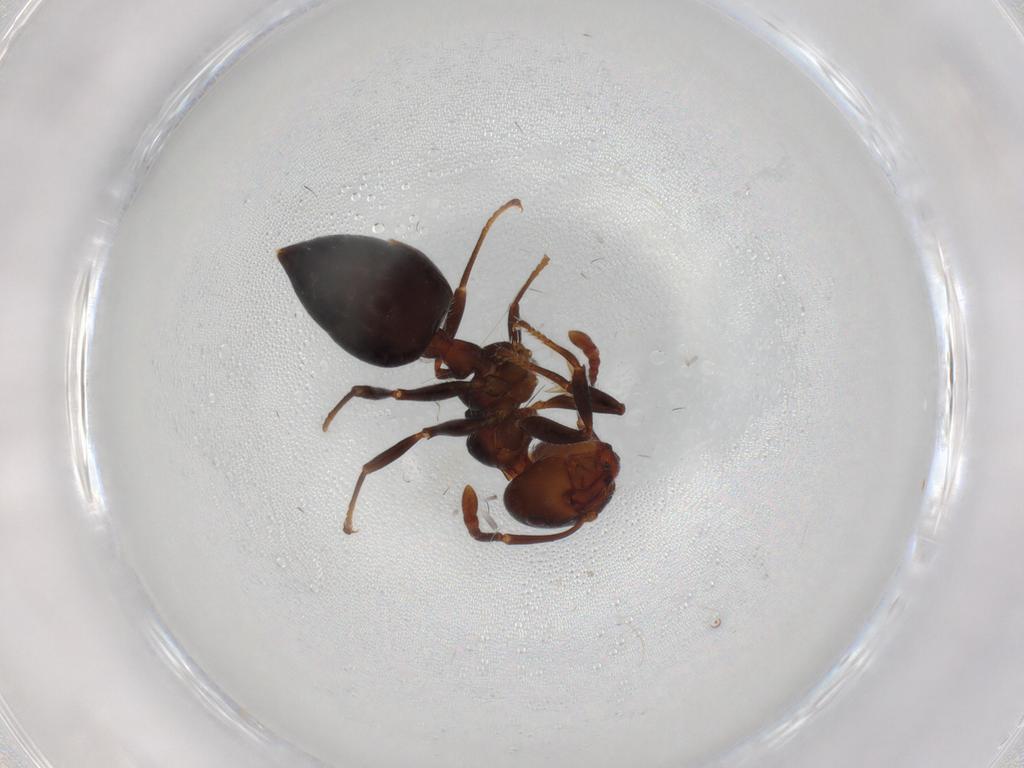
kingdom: Animalia
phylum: Arthropoda
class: Insecta
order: Hymenoptera
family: Formicidae
